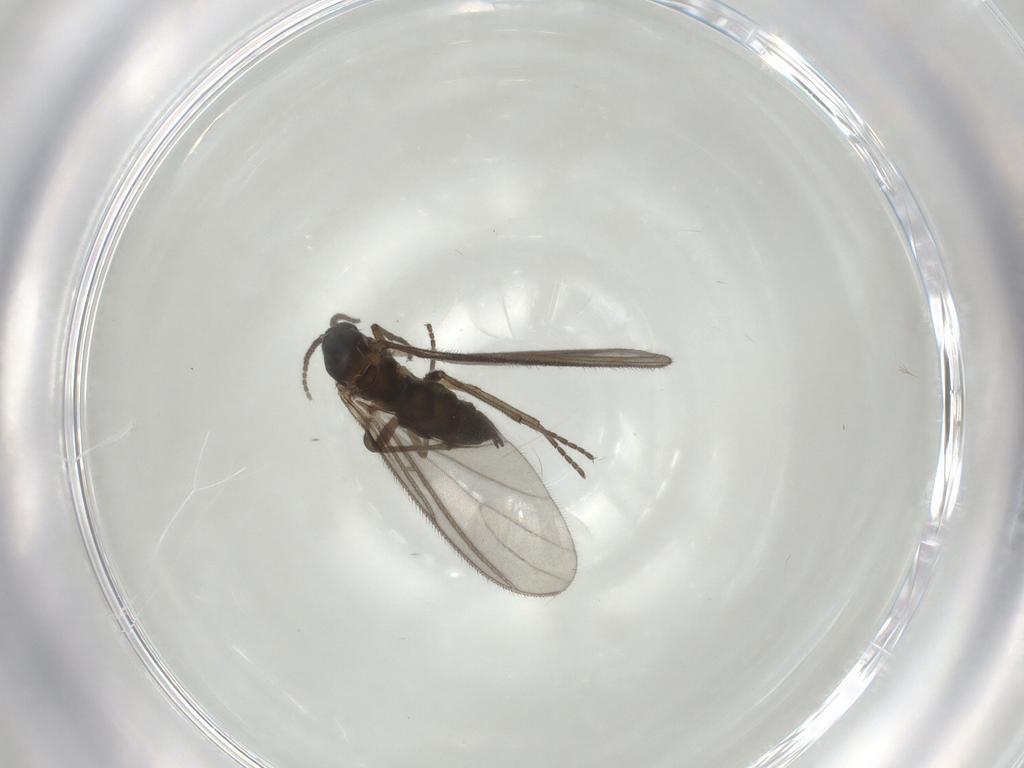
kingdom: Animalia
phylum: Arthropoda
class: Insecta
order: Diptera
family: Sciaridae
